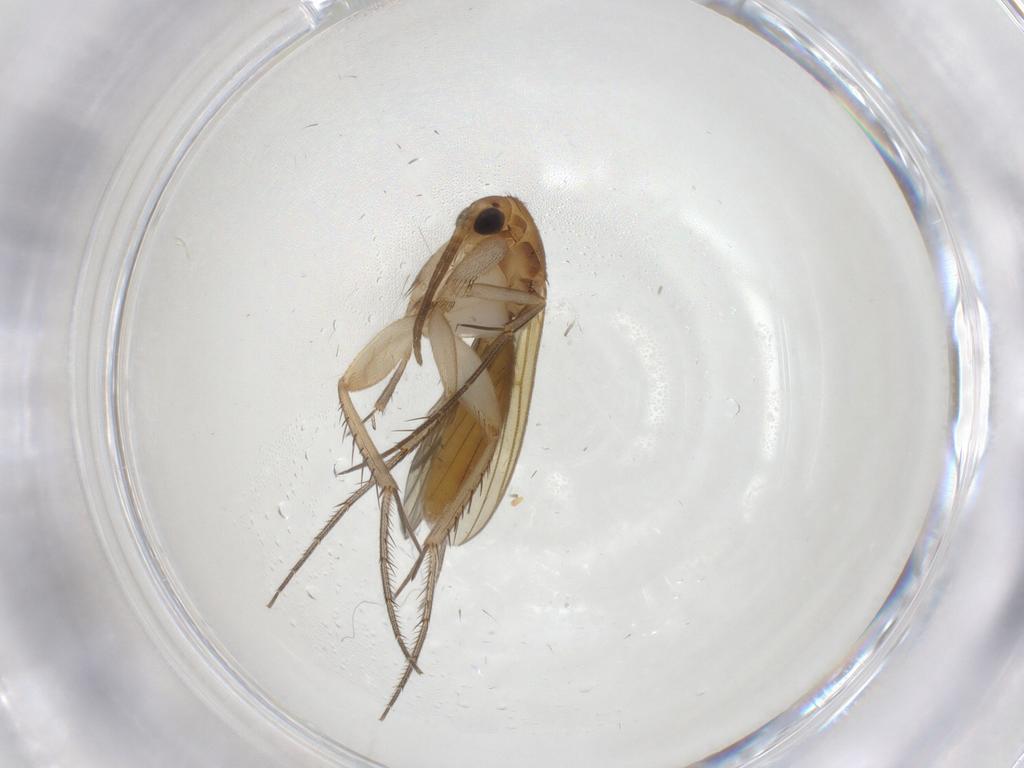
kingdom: Animalia
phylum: Arthropoda
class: Insecta
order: Diptera
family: Mycetophilidae
